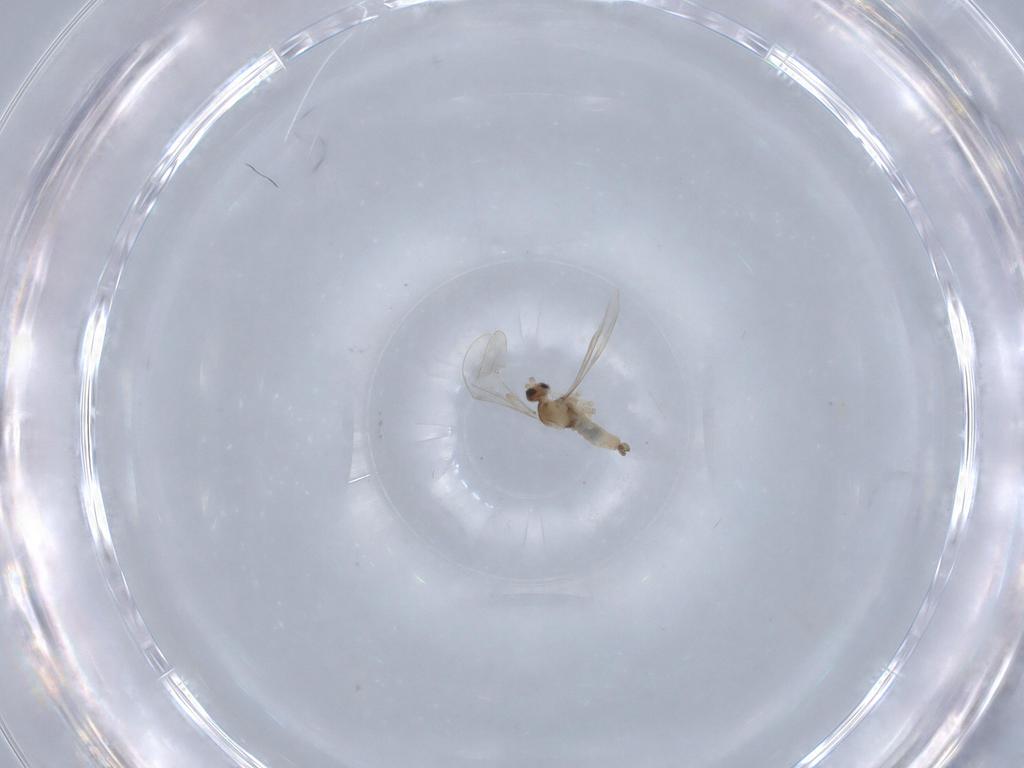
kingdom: Animalia
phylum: Arthropoda
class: Insecta
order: Diptera
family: Cecidomyiidae
